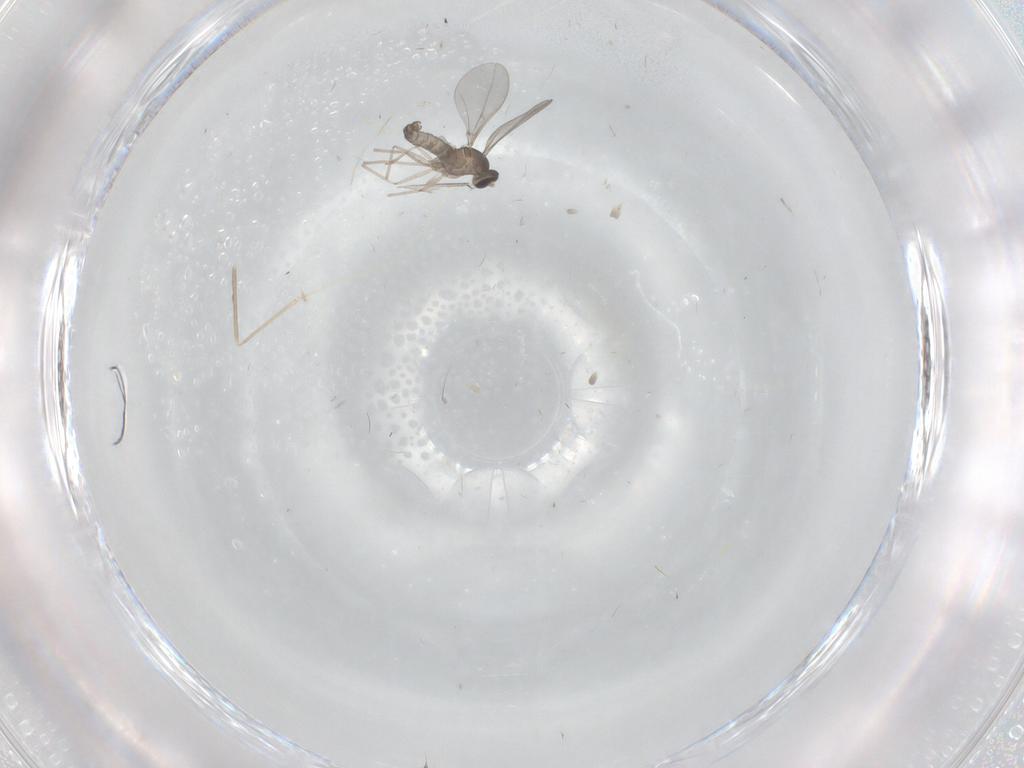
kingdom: Animalia
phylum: Arthropoda
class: Insecta
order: Diptera
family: Cecidomyiidae
